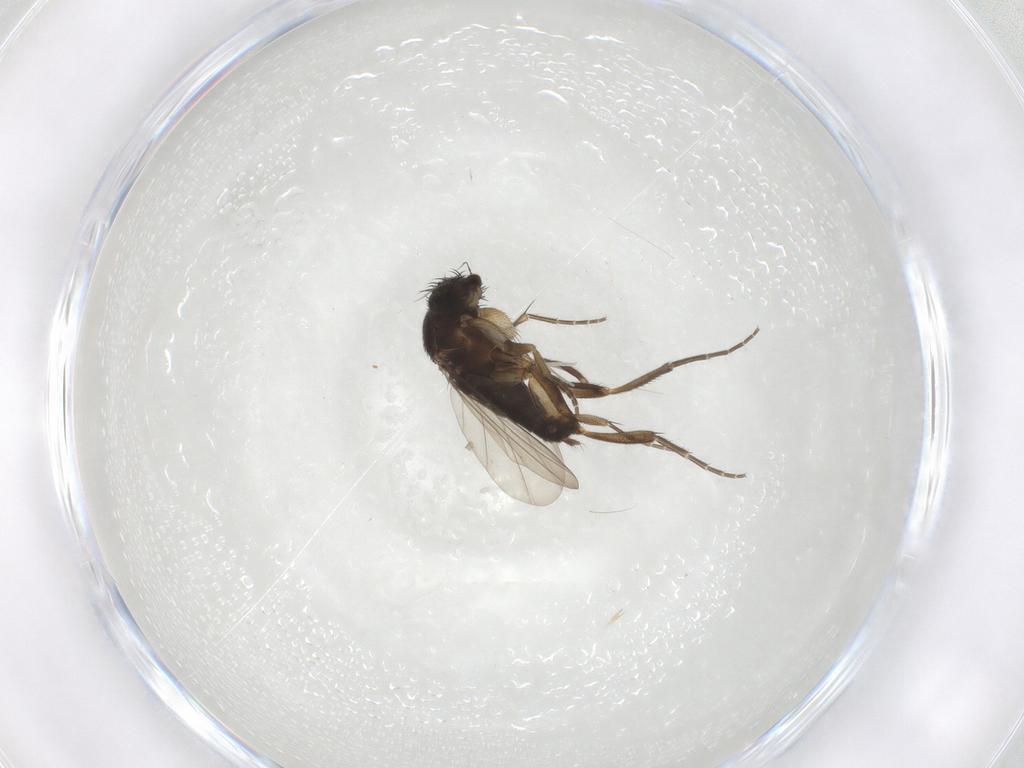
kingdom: Animalia
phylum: Arthropoda
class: Insecta
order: Diptera
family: Phoridae
